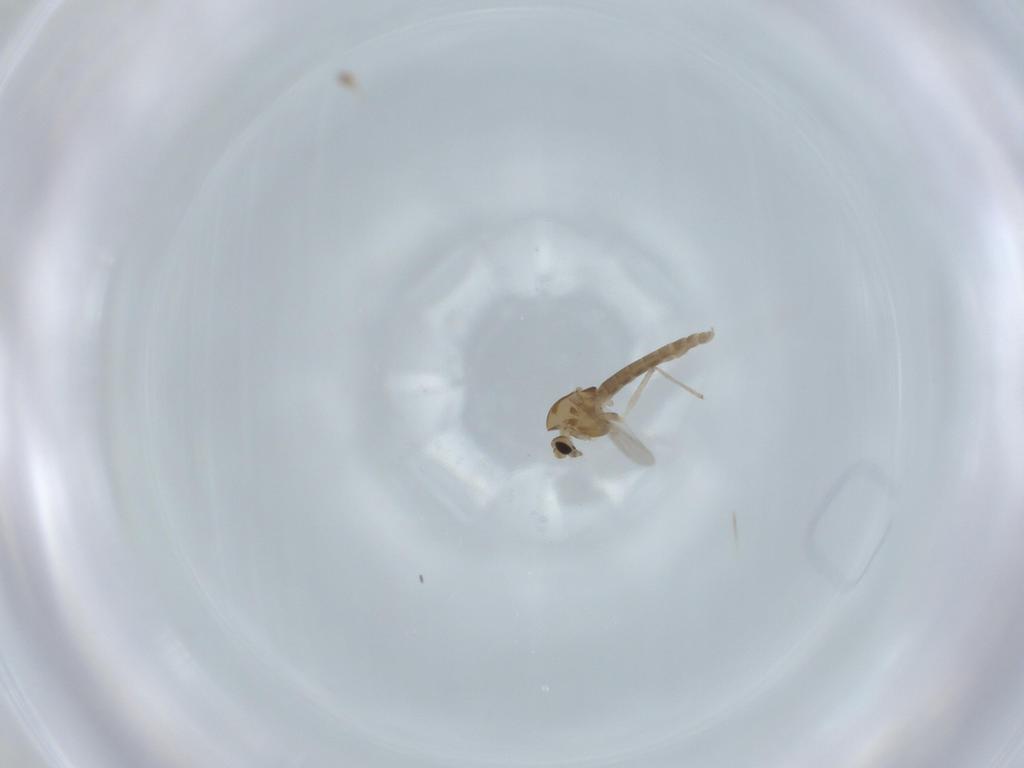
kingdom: Animalia
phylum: Arthropoda
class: Insecta
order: Diptera
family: Chironomidae
